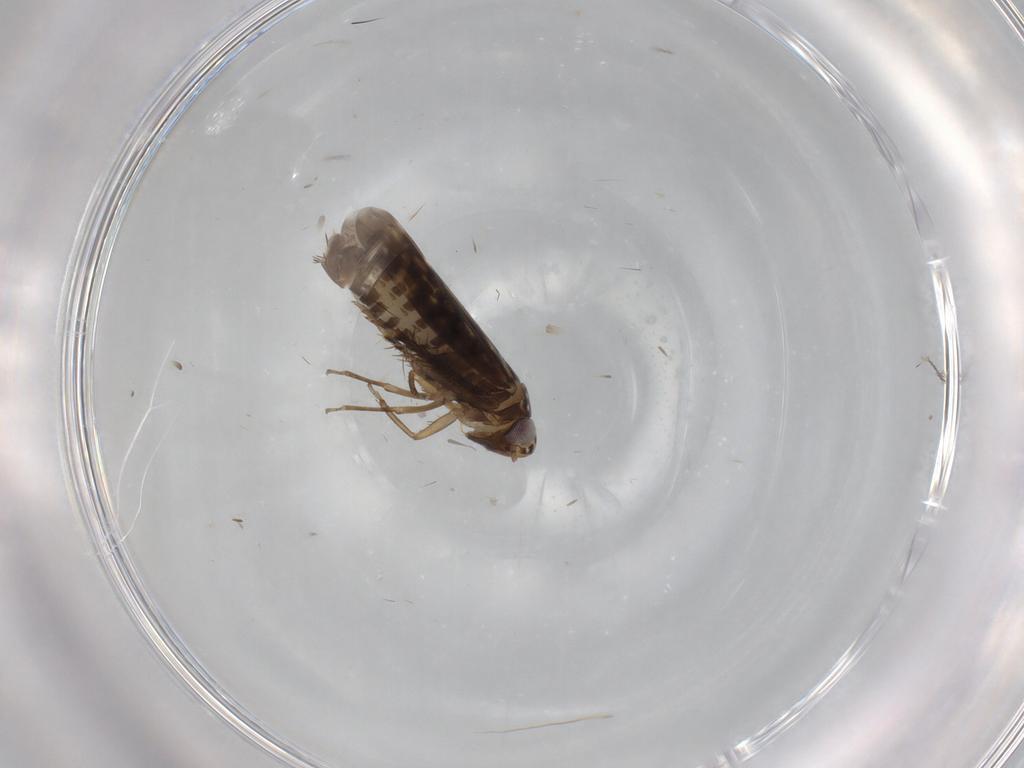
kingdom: Animalia
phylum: Arthropoda
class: Insecta
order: Hemiptera
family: Cicadellidae
